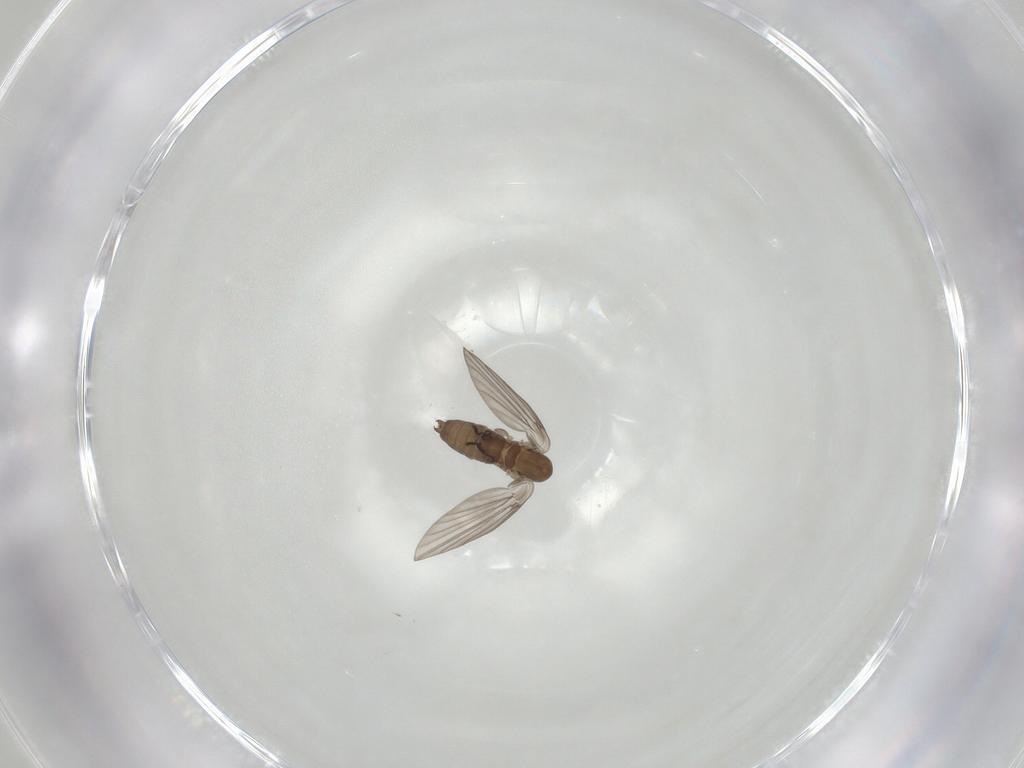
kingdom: Animalia
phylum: Arthropoda
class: Insecta
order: Diptera
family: Psychodidae
